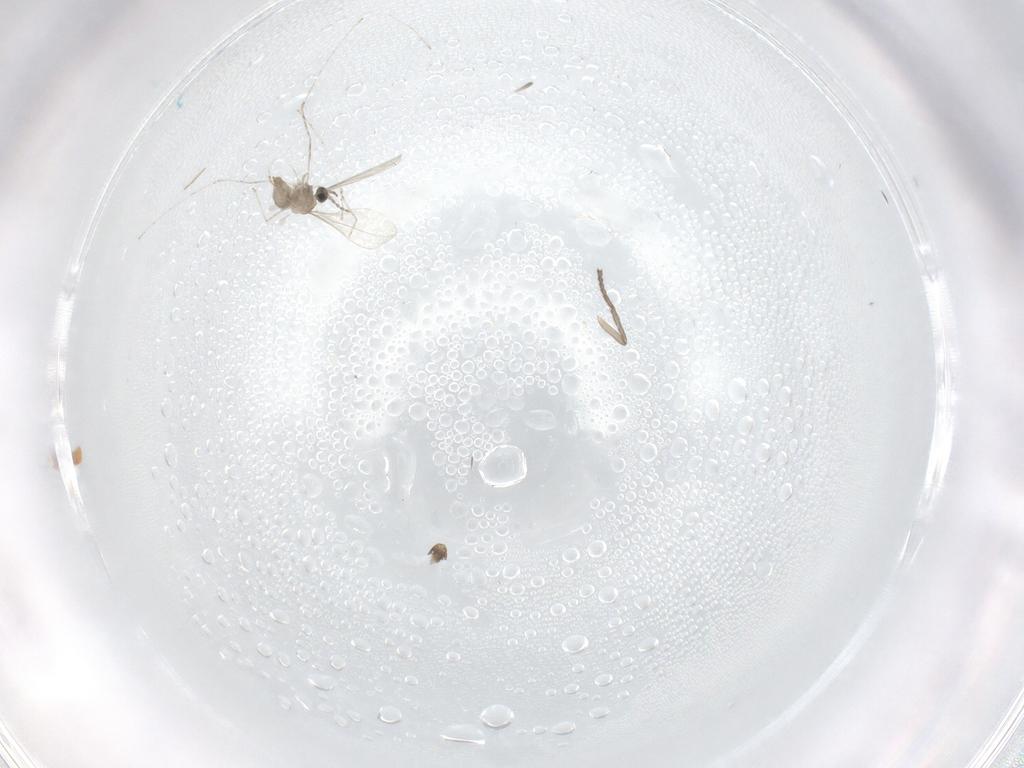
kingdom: Animalia
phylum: Arthropoda
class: Insecta
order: Diptera
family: Psychodidae
